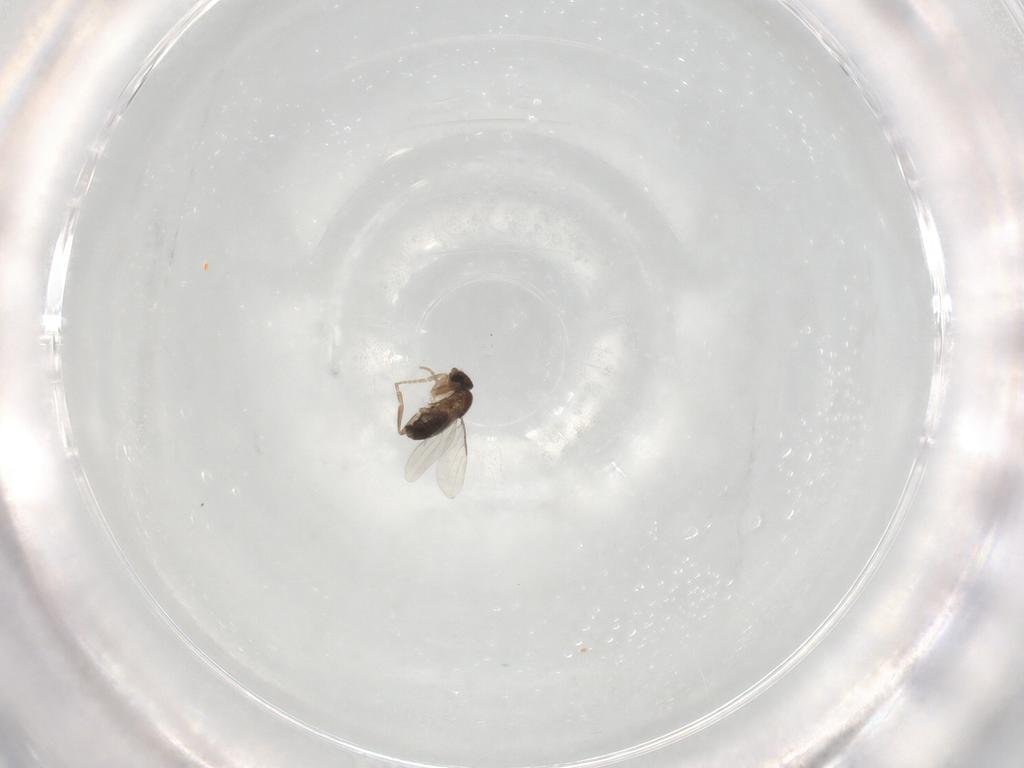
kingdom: Animalia
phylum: Arthropoda
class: Insecta
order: Diptera
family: Phoridae
